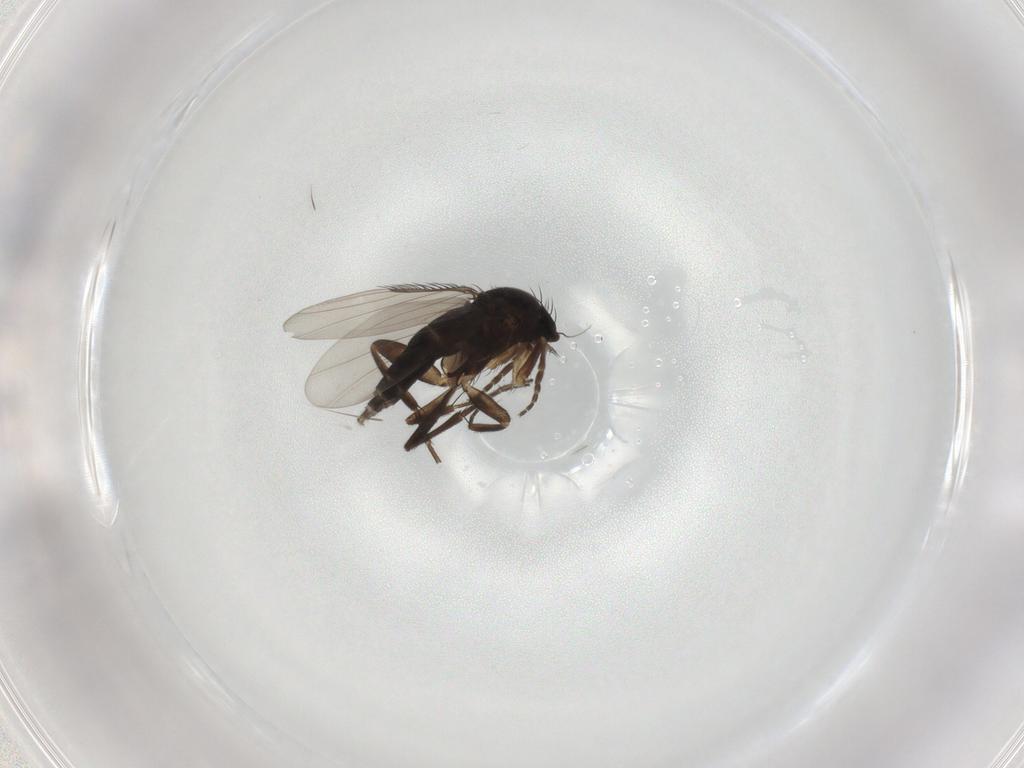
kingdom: Animalia
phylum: Arthropoda
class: Insecta
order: Diptera
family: Phoridae
